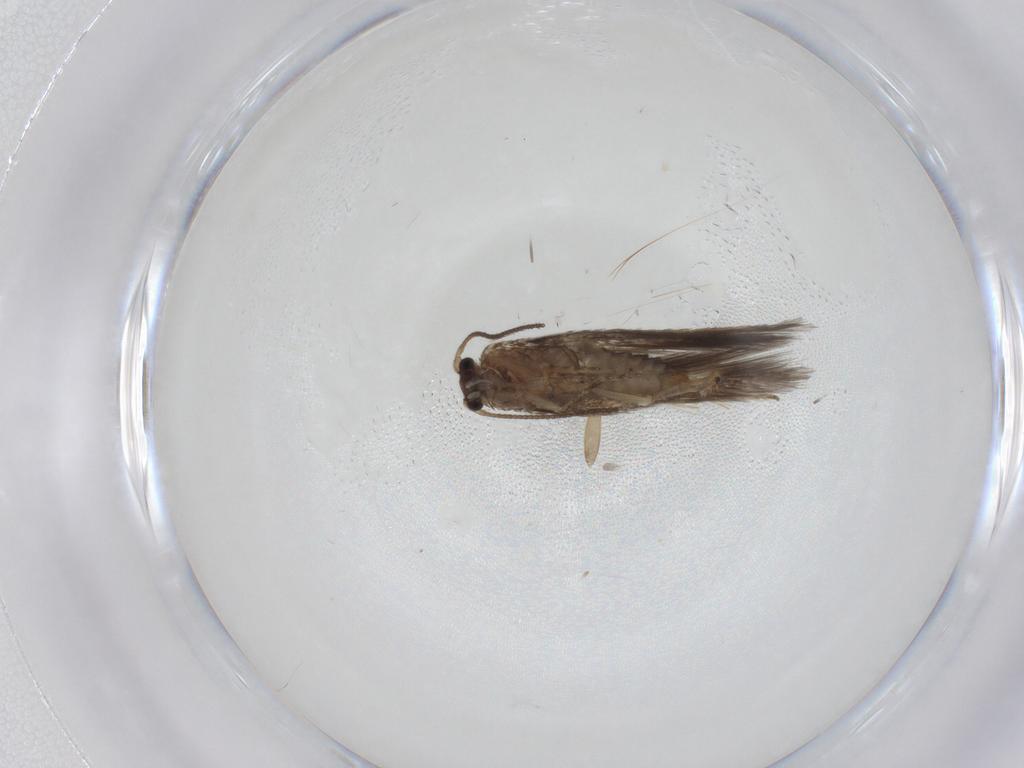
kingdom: Animalia
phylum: Arthropoda
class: Insecta
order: Lepidoptera
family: Nepticulidae
